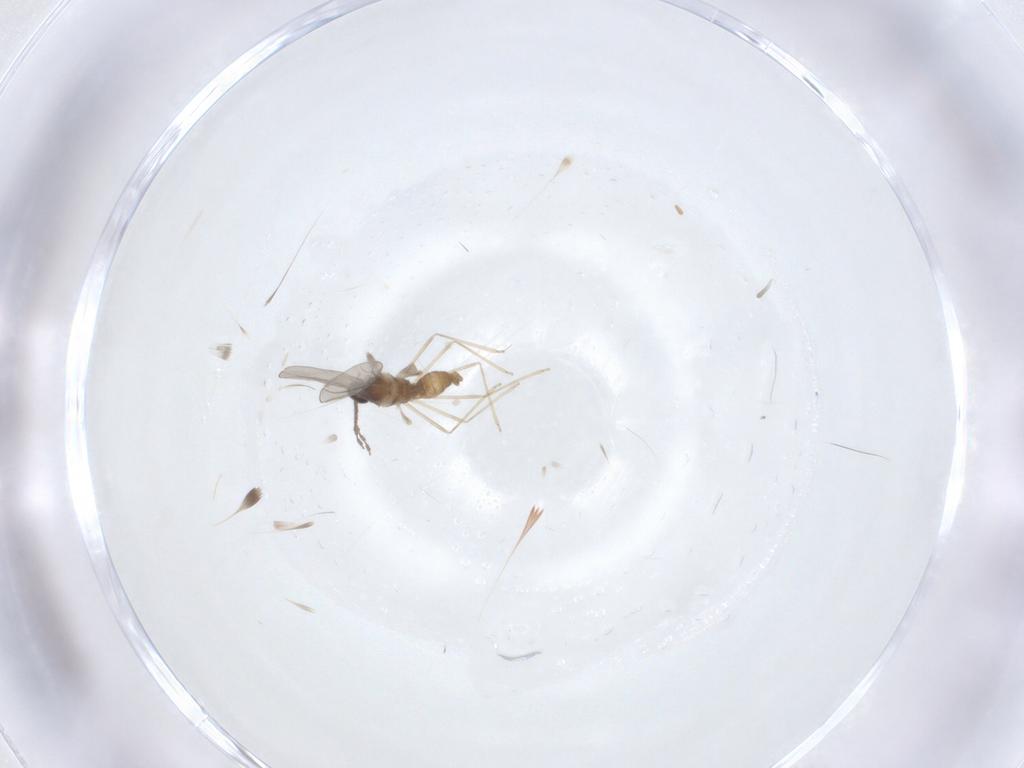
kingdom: Animalia
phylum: Arthropoda
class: Insecta
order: Diptera
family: Cecidomyiidae
